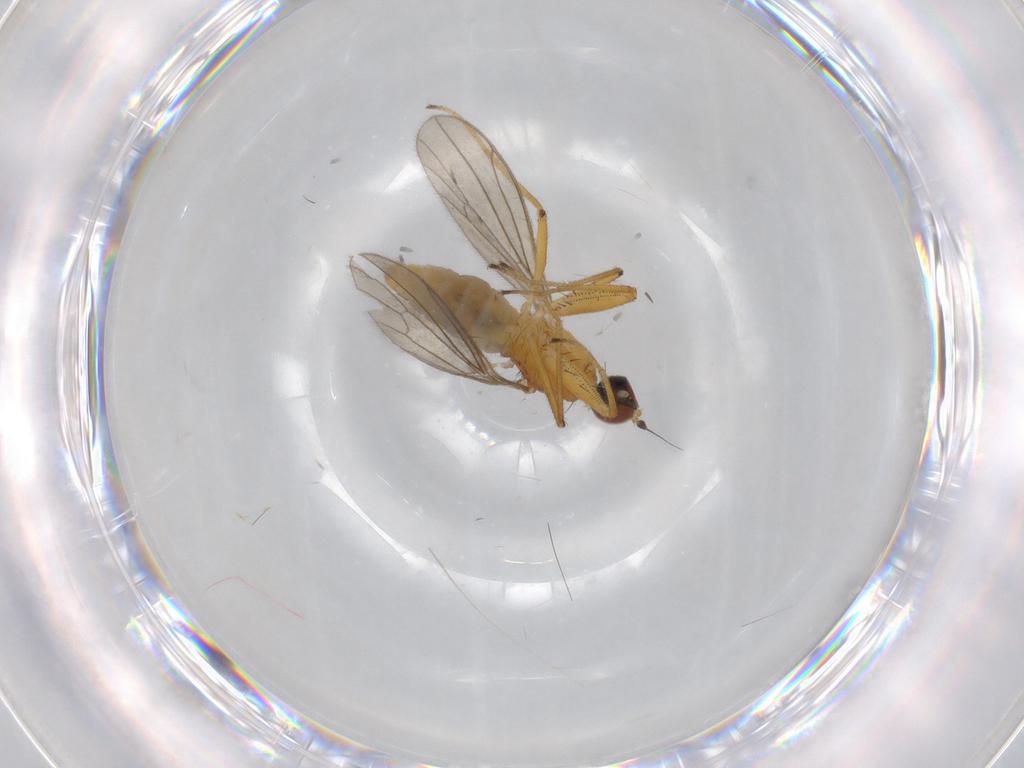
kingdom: Animalia
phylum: Arthropoda
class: Insecta
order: Diptera
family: Empididae
